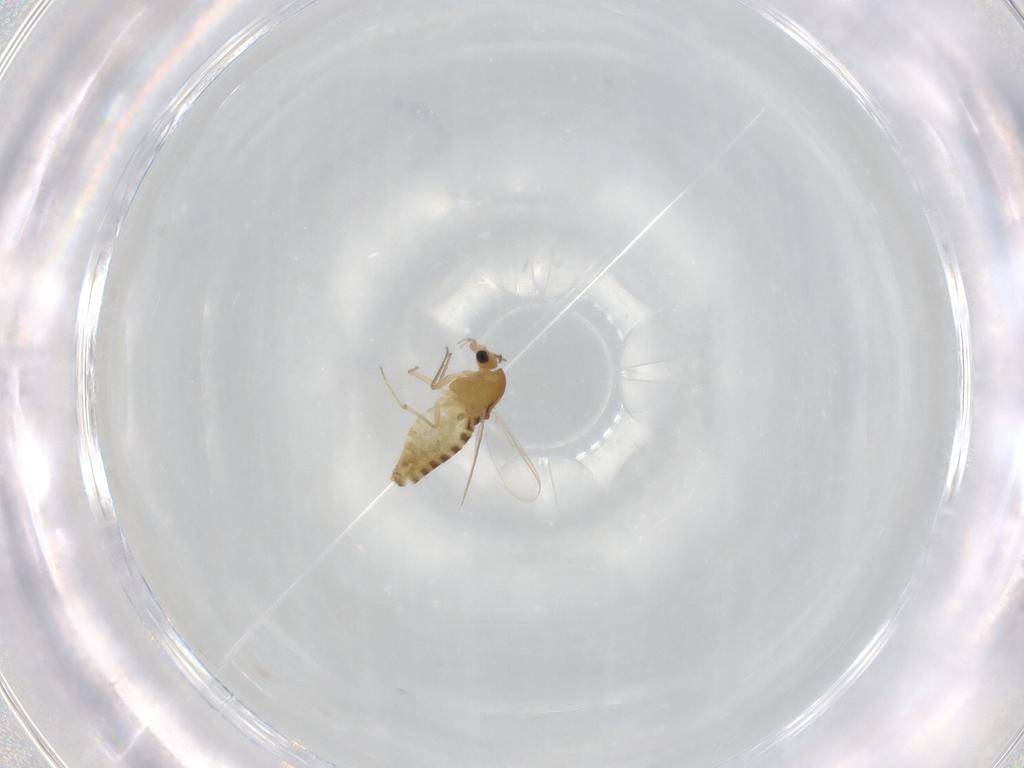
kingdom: Animalia
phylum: Arthropoda
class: Insecta
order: Diptera
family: Chironomidae
